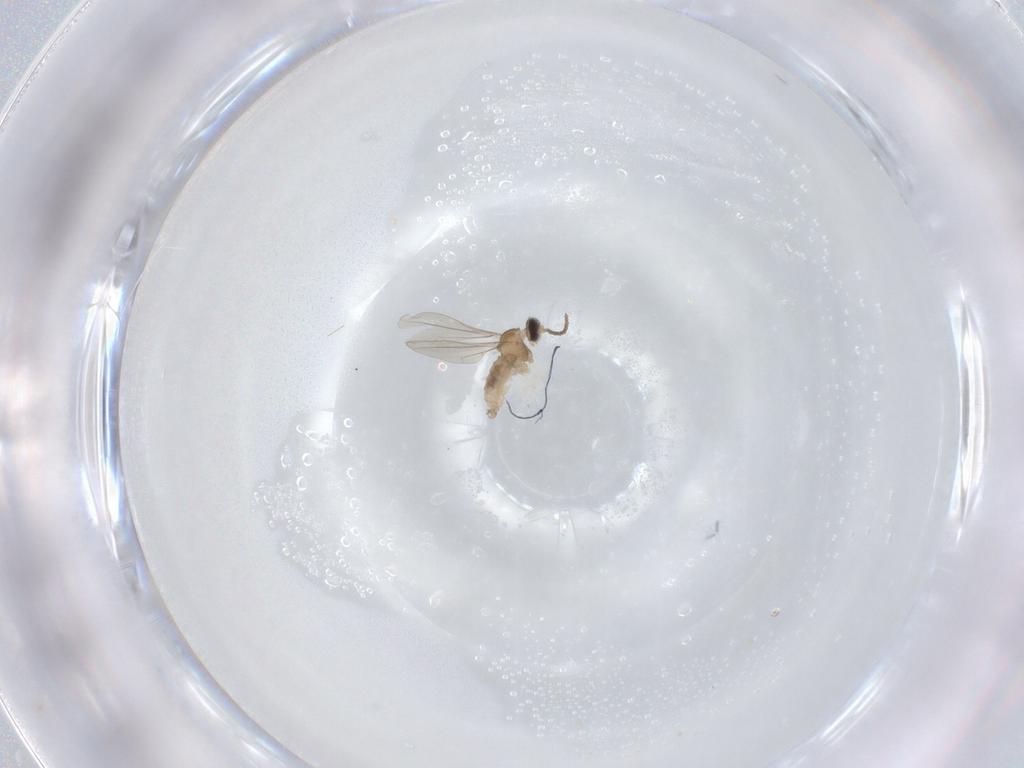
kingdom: Animalia
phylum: Arthropoda
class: Insecta
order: Diptera
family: Cecidomyiidae
